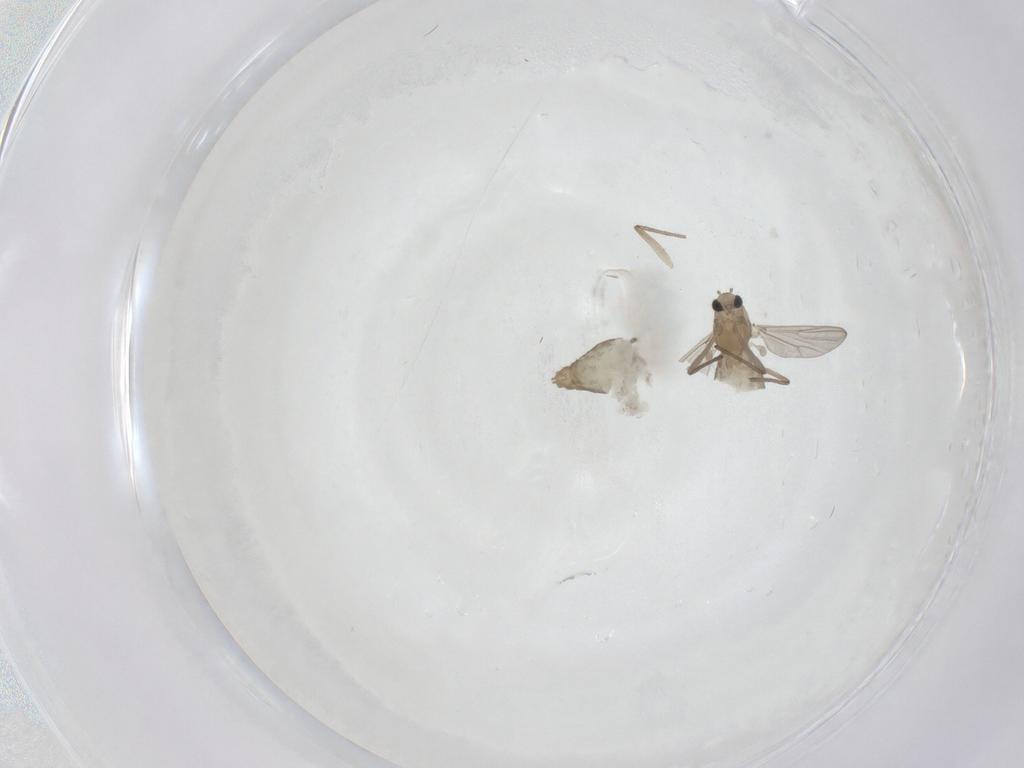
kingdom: Animalia
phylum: Arthropoda
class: Insecta
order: Diptera
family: Chironomidae
